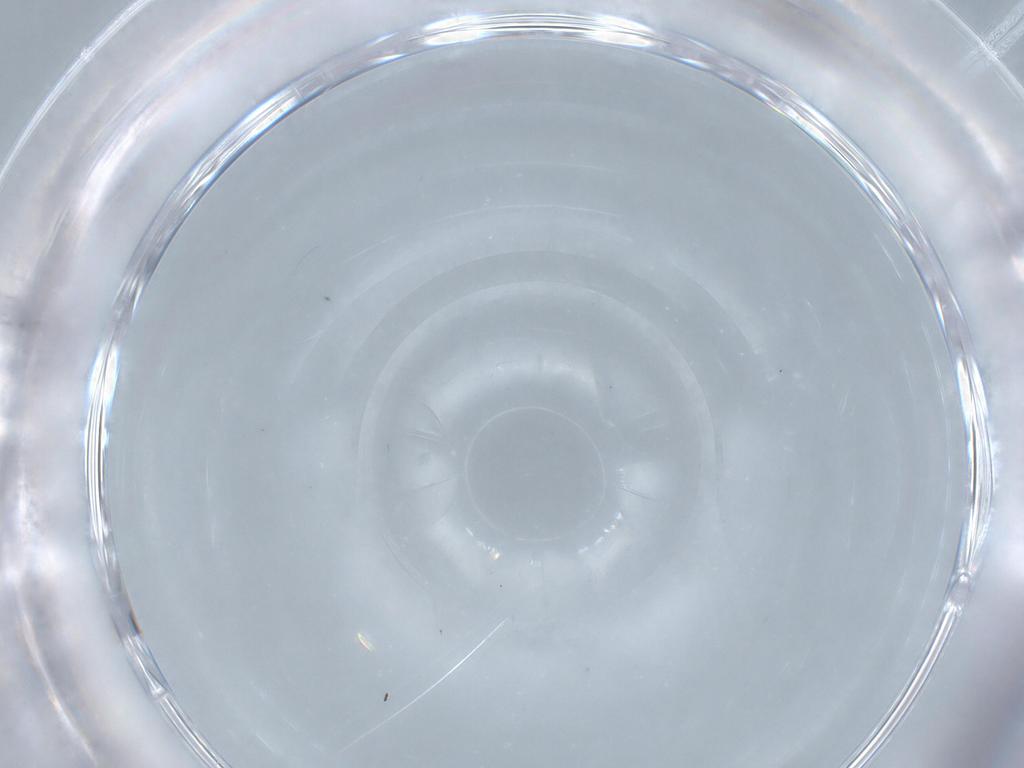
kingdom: Animalia
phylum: Arthropoda
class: Insecta
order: Diptera
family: Ceratopogonidae
